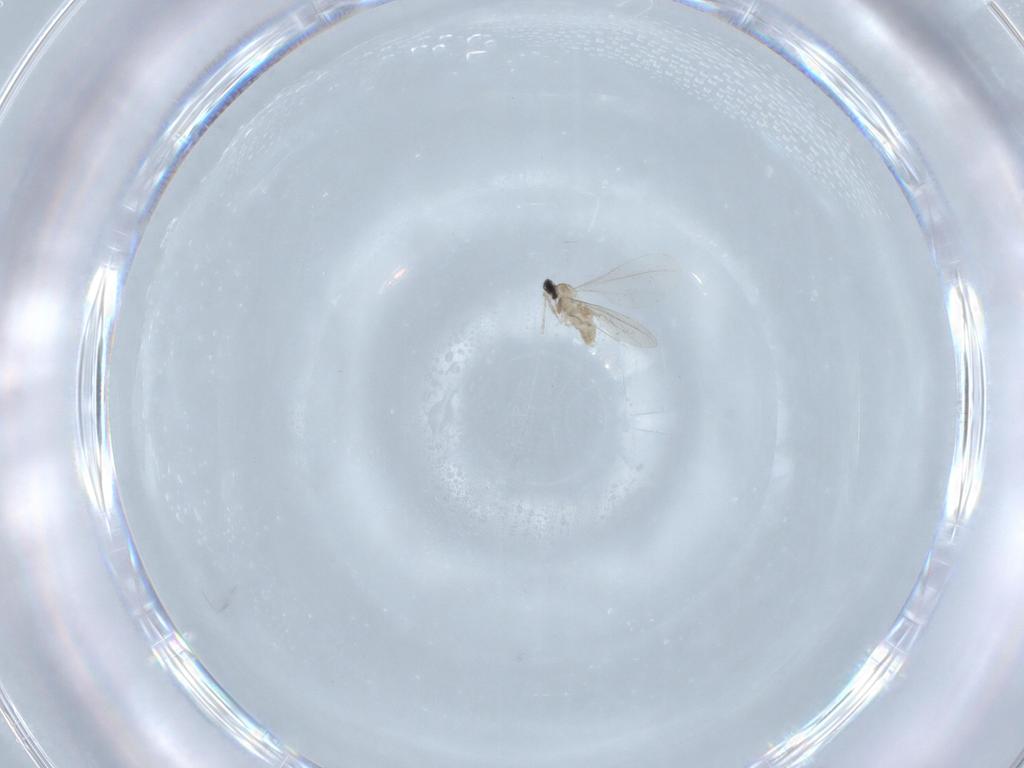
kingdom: Animalia
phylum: Arthropoda
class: Insecta
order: Diptera
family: Cecidomyiidae
